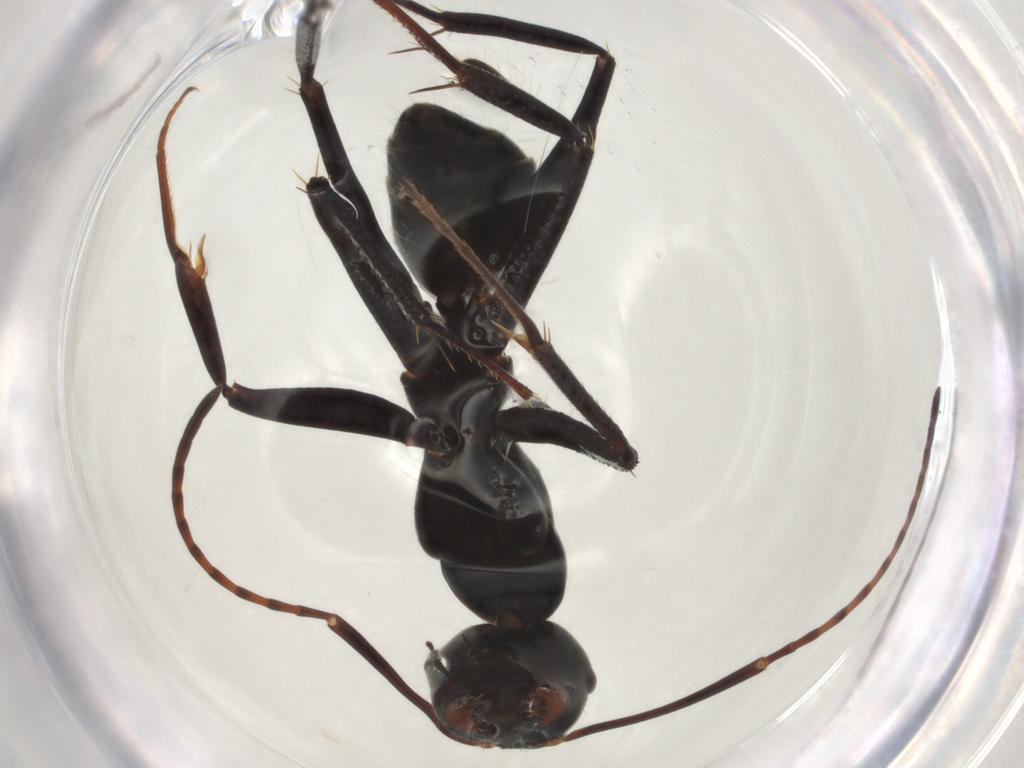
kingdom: Animalia
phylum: Arthropoda
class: Insecta
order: Hymenoptera
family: Formicidae
